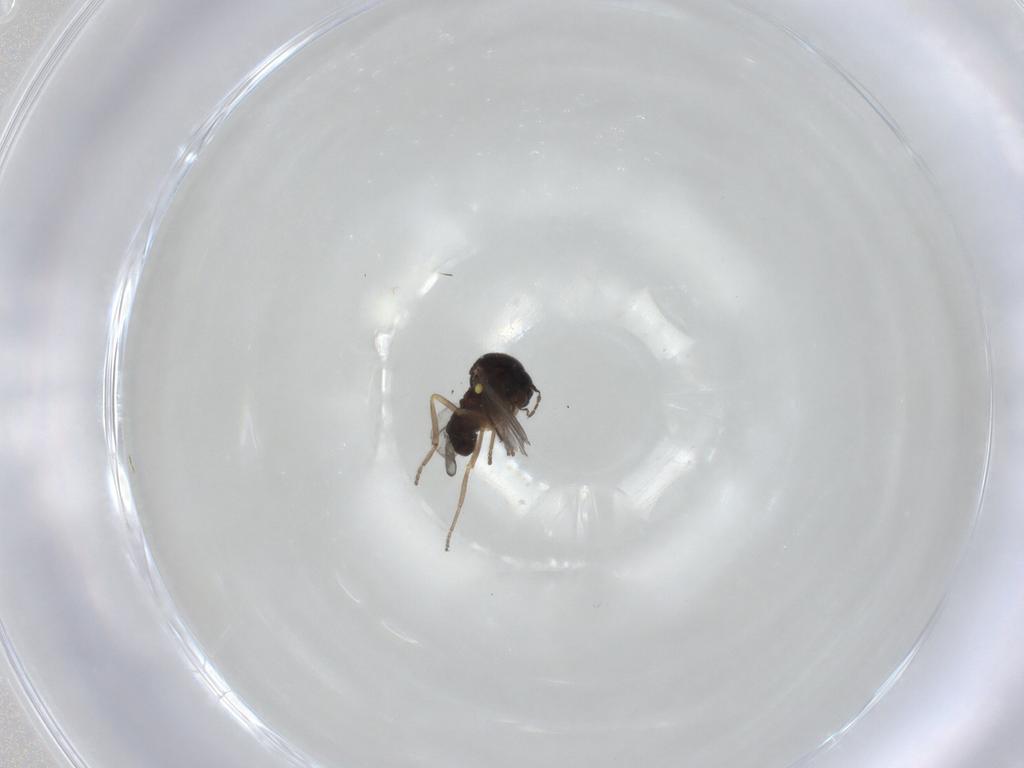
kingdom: Animalia
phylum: Arthropoda
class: Insecta
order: Diptera
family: Ceratopogonidae
